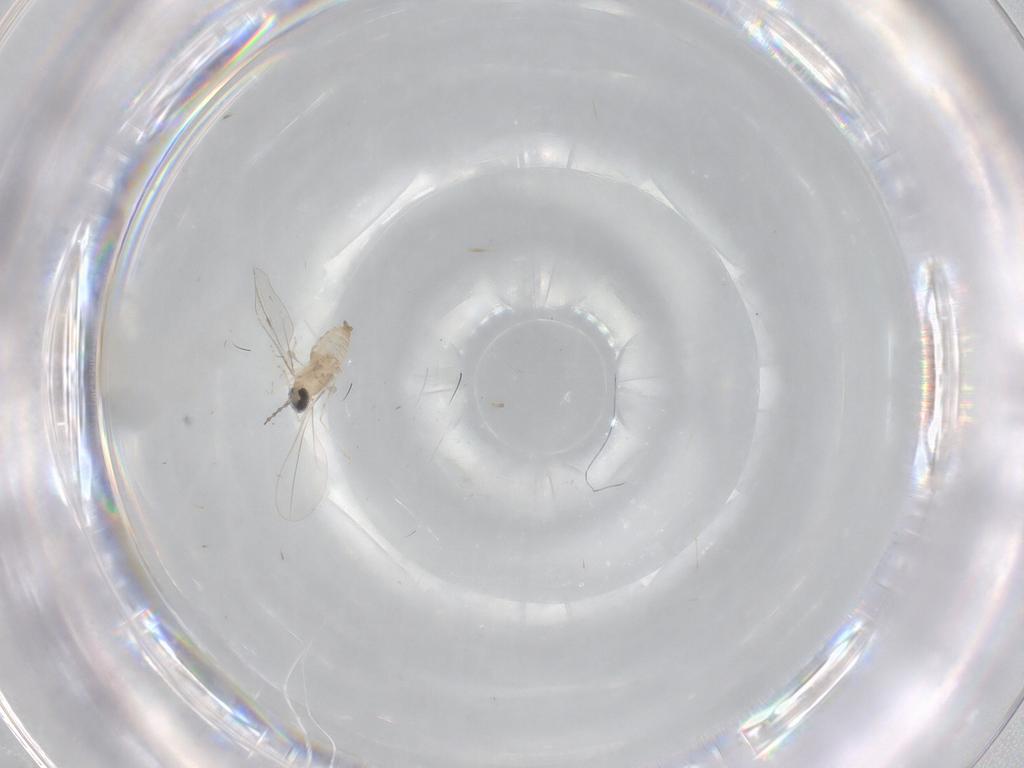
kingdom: Animalia
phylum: Arthropoda
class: Insecta
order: Diptera
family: Cecidomyiidae
